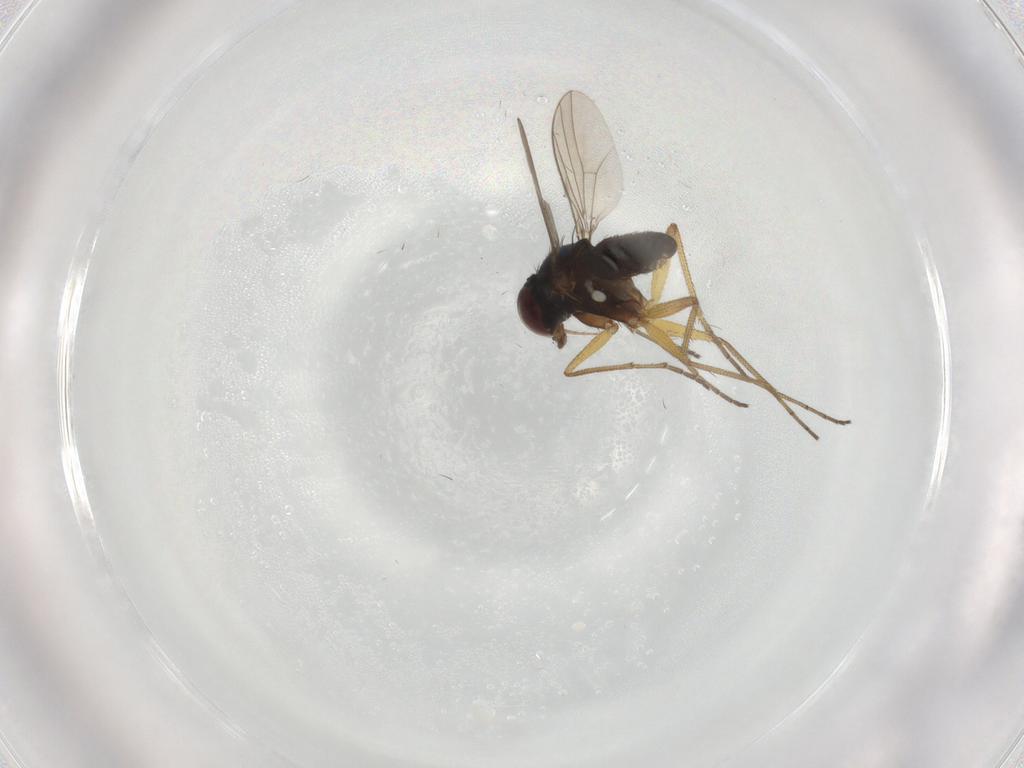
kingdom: Animalia
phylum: Arthropoda
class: Insecta
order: Diptera
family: Dolichopodidae
